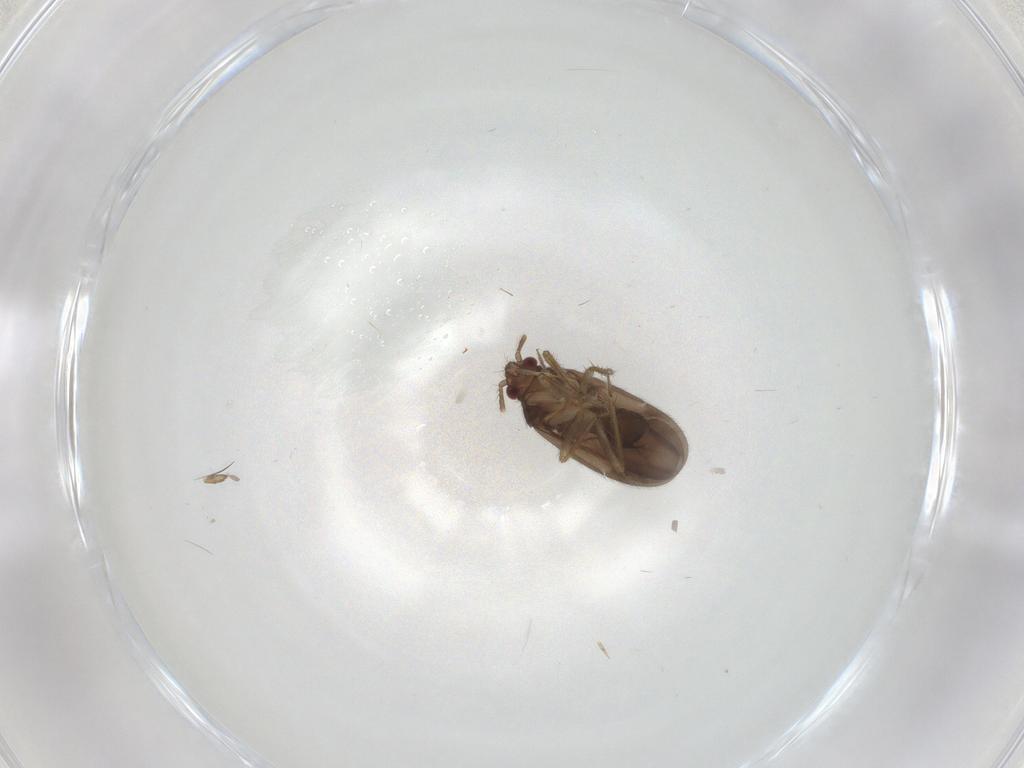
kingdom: Animalia
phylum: Arthropoda
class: Insecta
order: Hemiptera
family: Ceratocombidae
